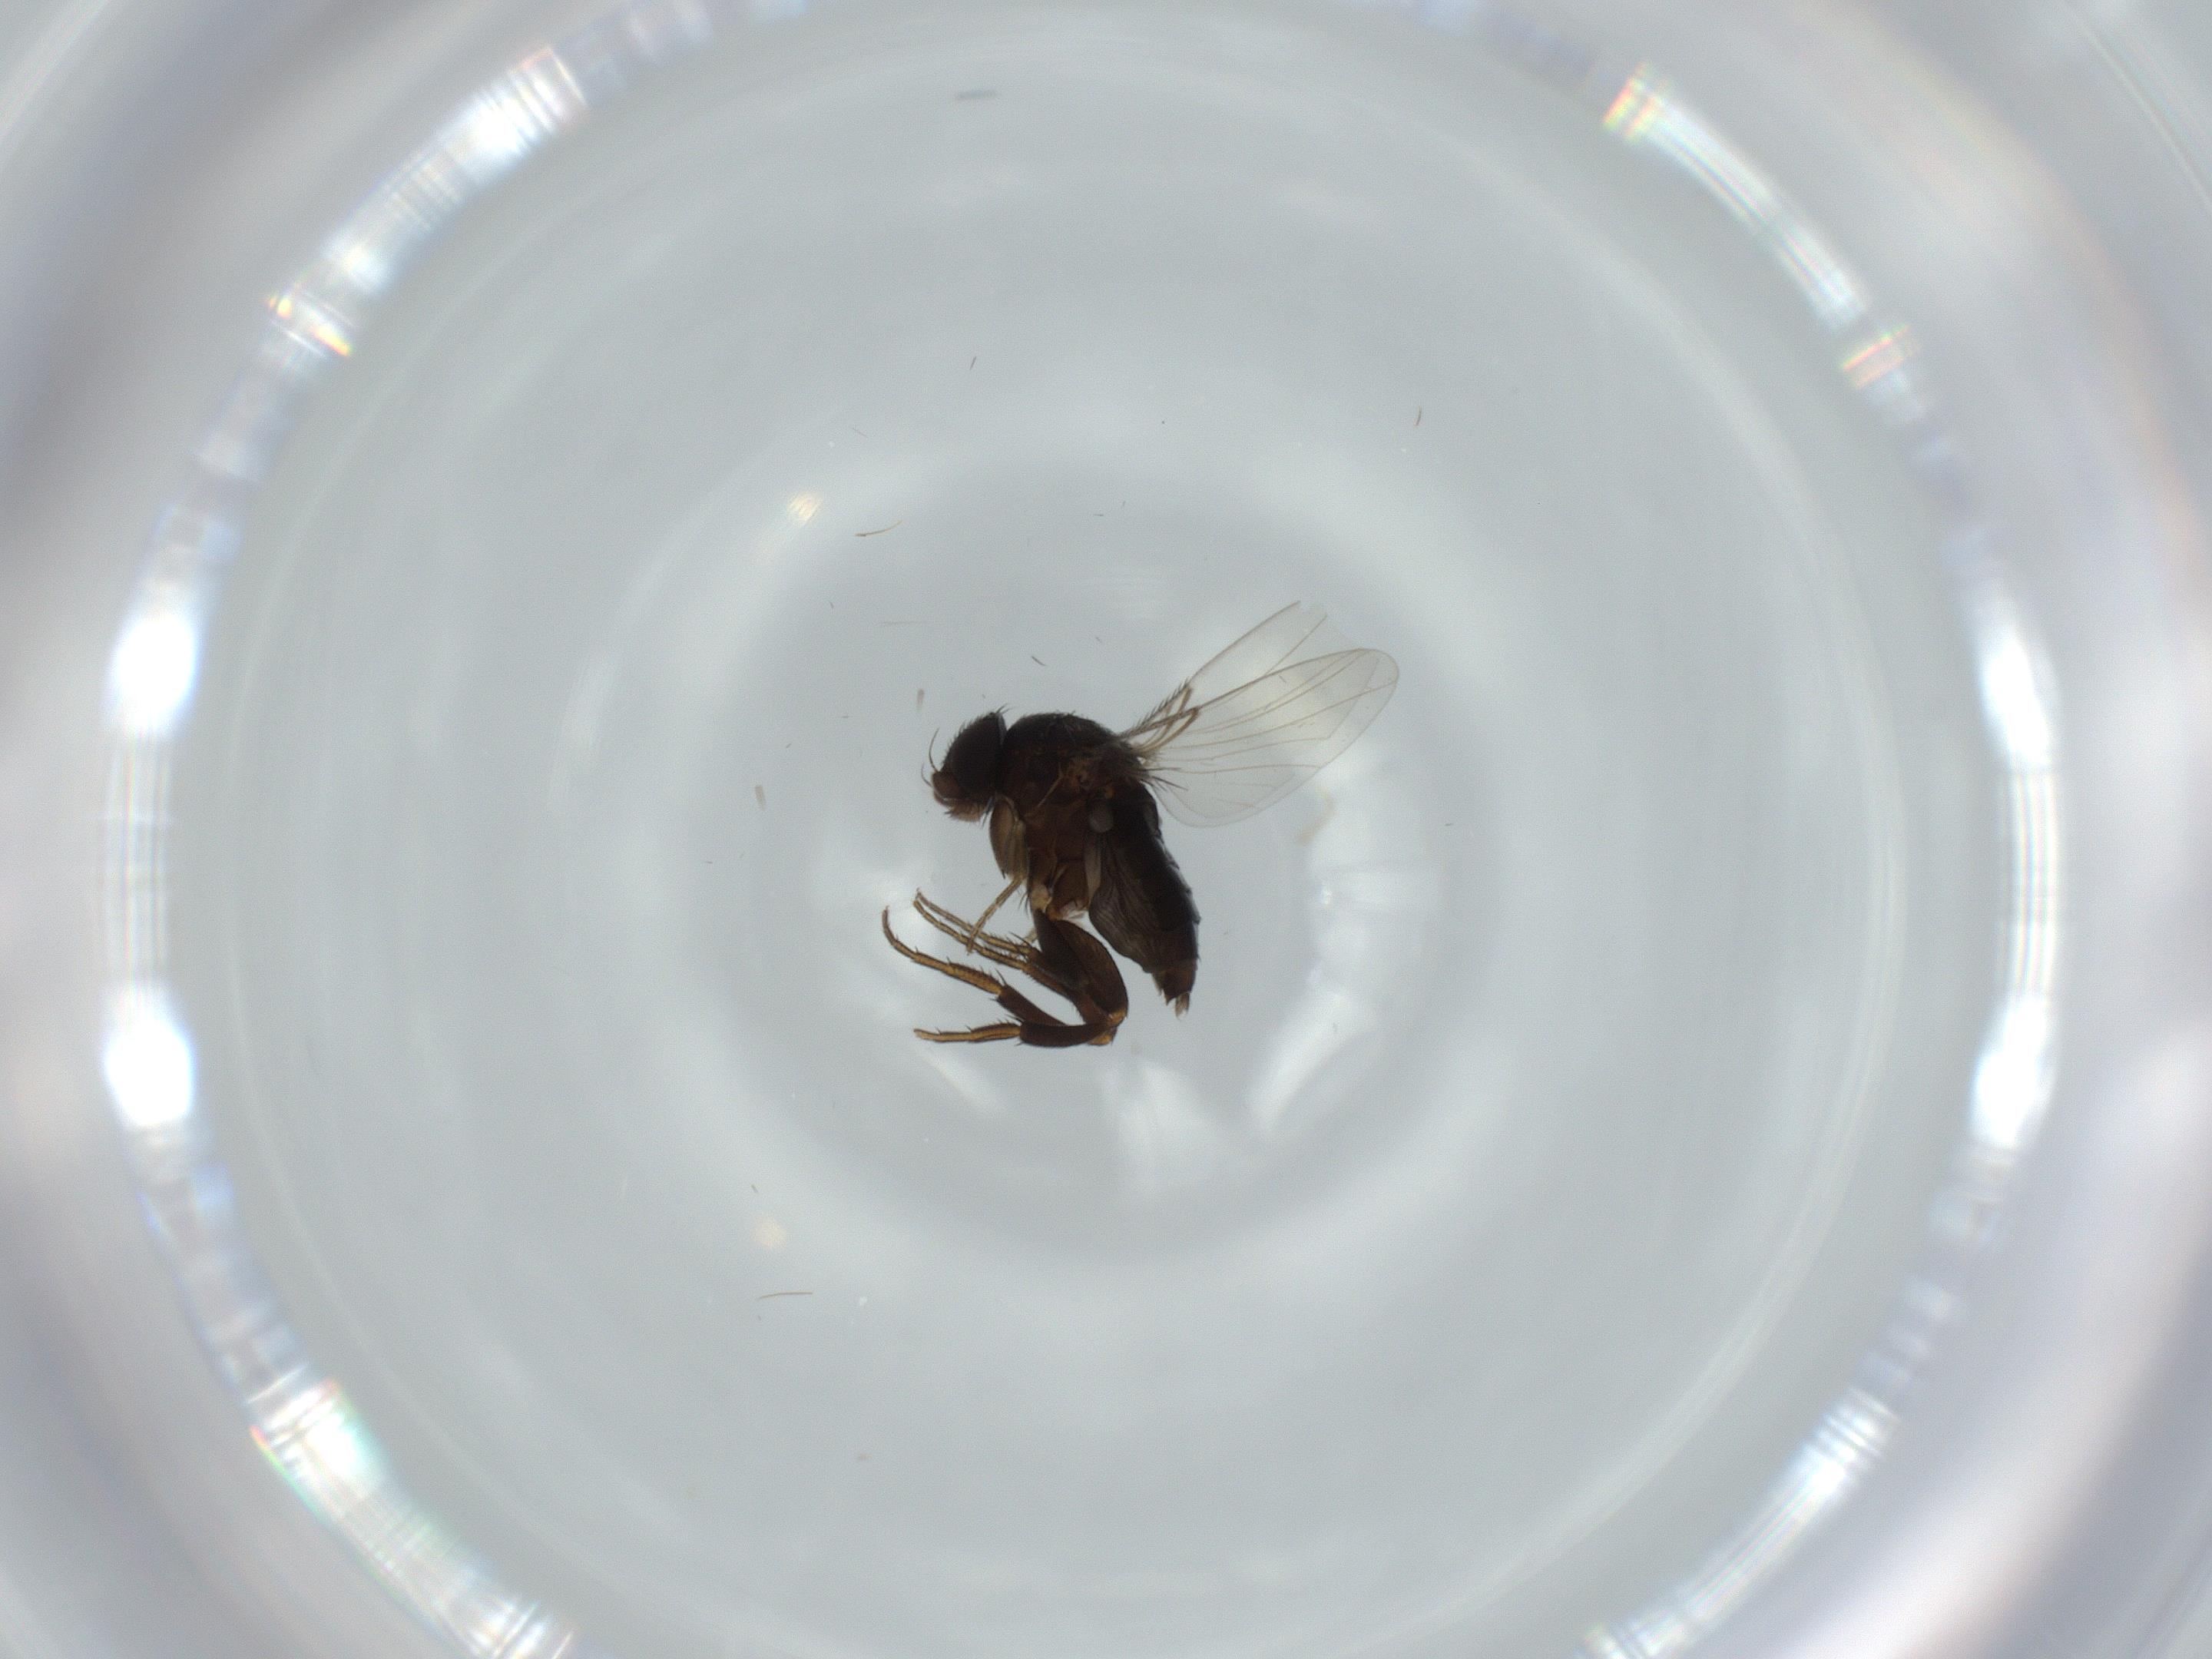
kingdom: Animalia
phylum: Arthropoda
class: Insecta
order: Diptera
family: Phoridae
